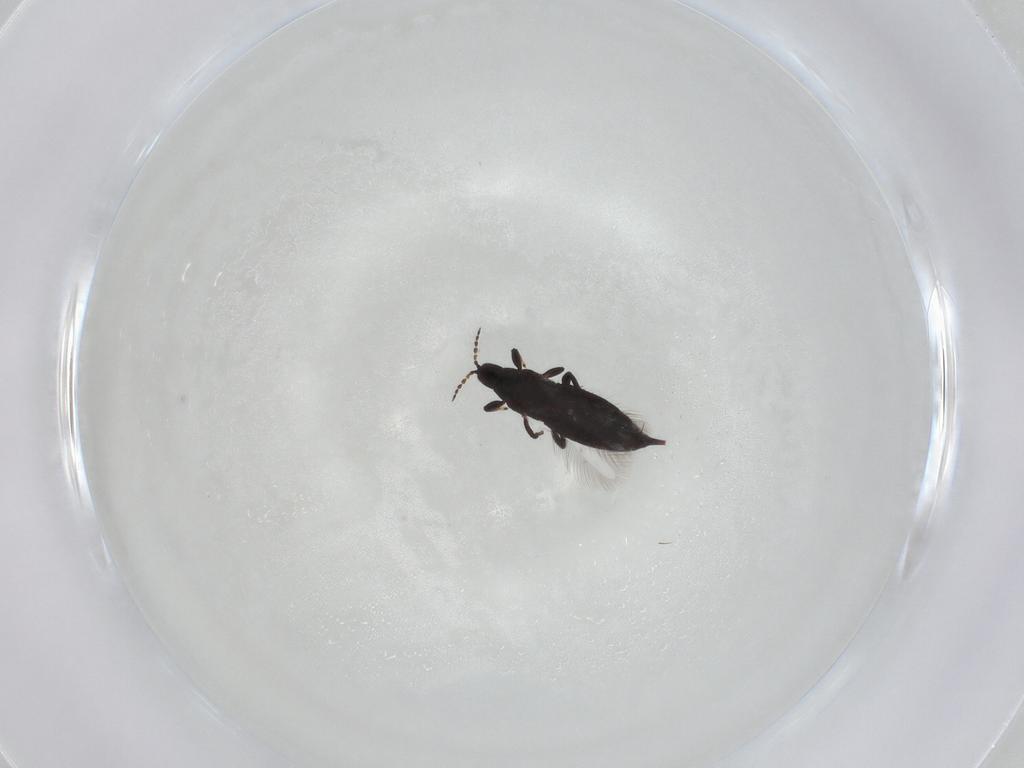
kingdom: Animalia
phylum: Arthropoda
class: Insecta
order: Thysanoptera
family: Phlaeothripidae
